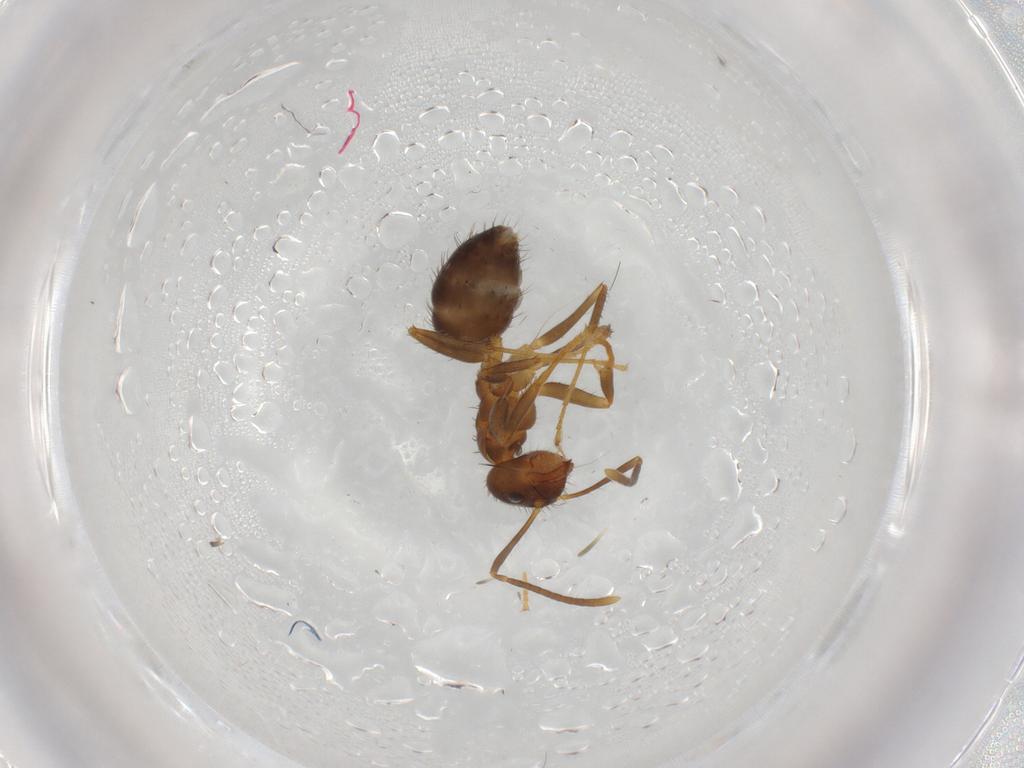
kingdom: Animalia
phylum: Arthropoda
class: Insecta
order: Hymenoptera
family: Formicidae
